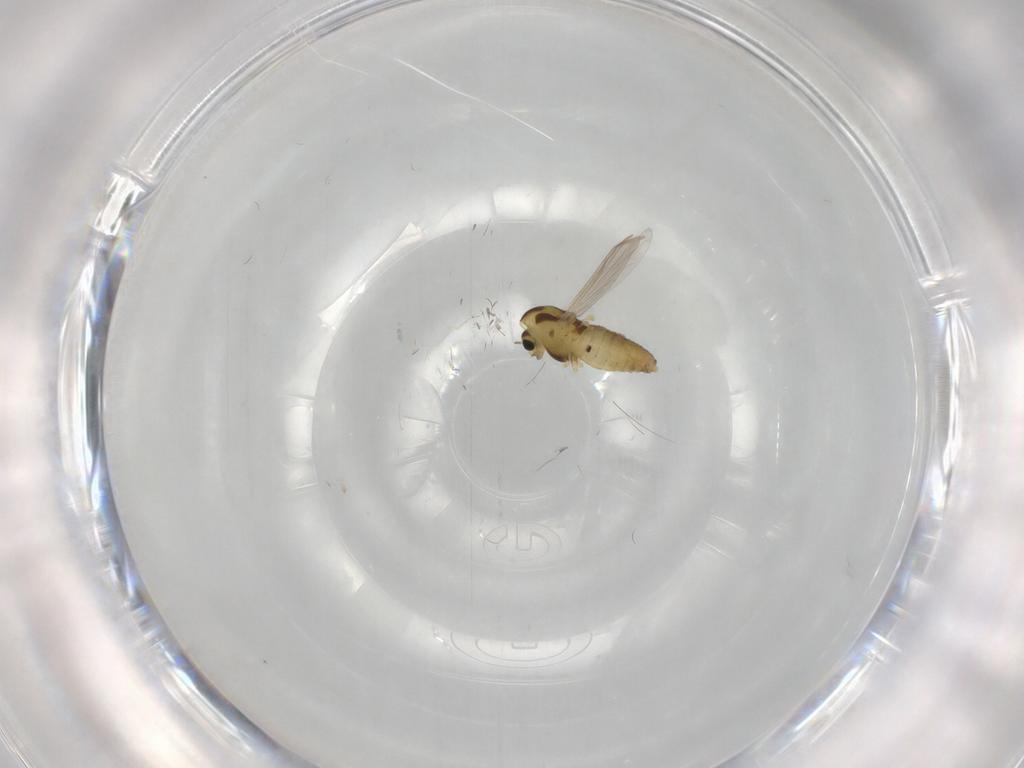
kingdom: Animalia
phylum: Arthropoda
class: Insecta
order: Diptera
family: Chironomidae
